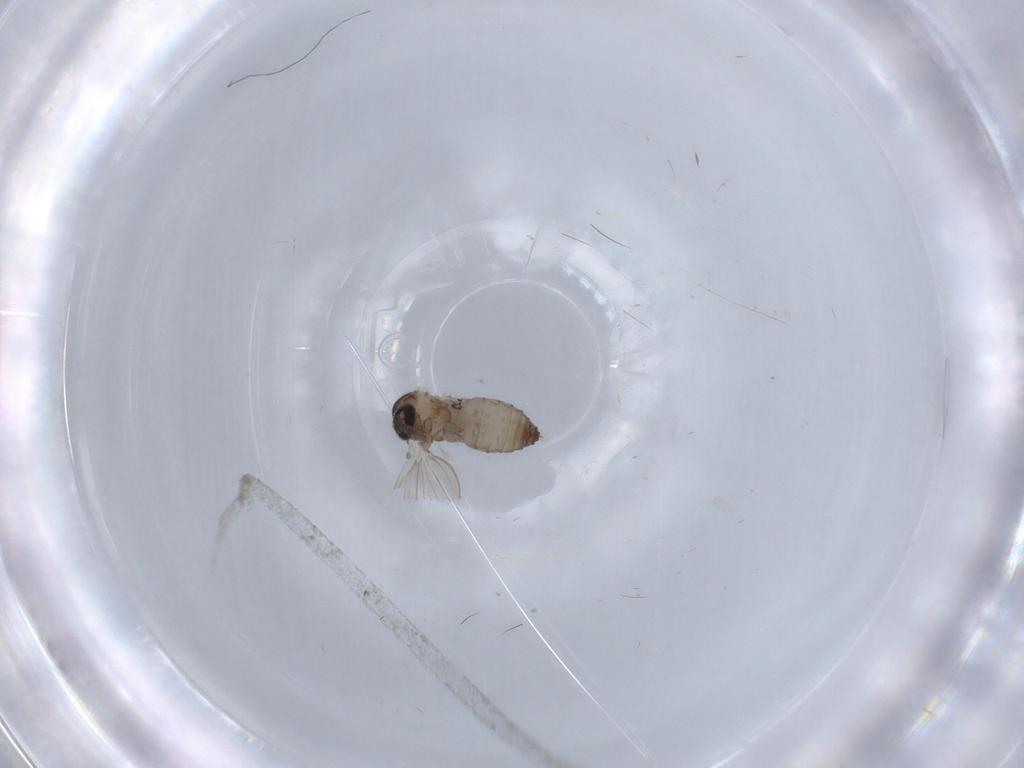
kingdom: Animalia
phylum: Arthropoda
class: Insecta
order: Diptera
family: Psychodidae
